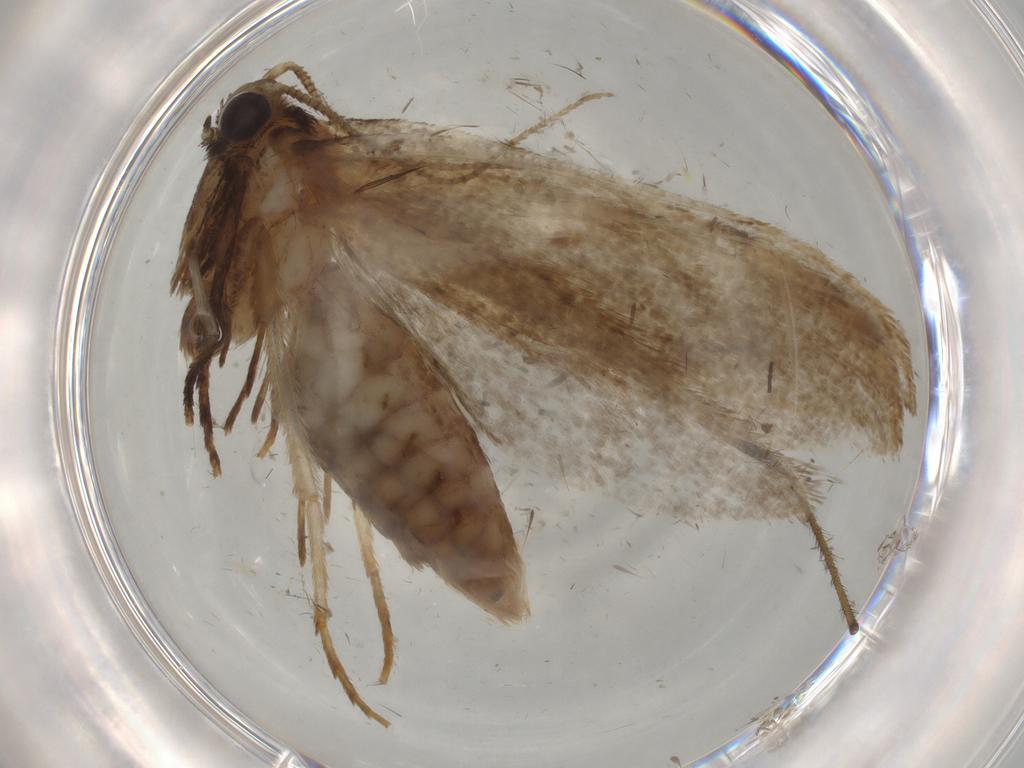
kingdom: Animalia
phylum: Arthropoda
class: Insecta
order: Lepidoptera
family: Tineidae
